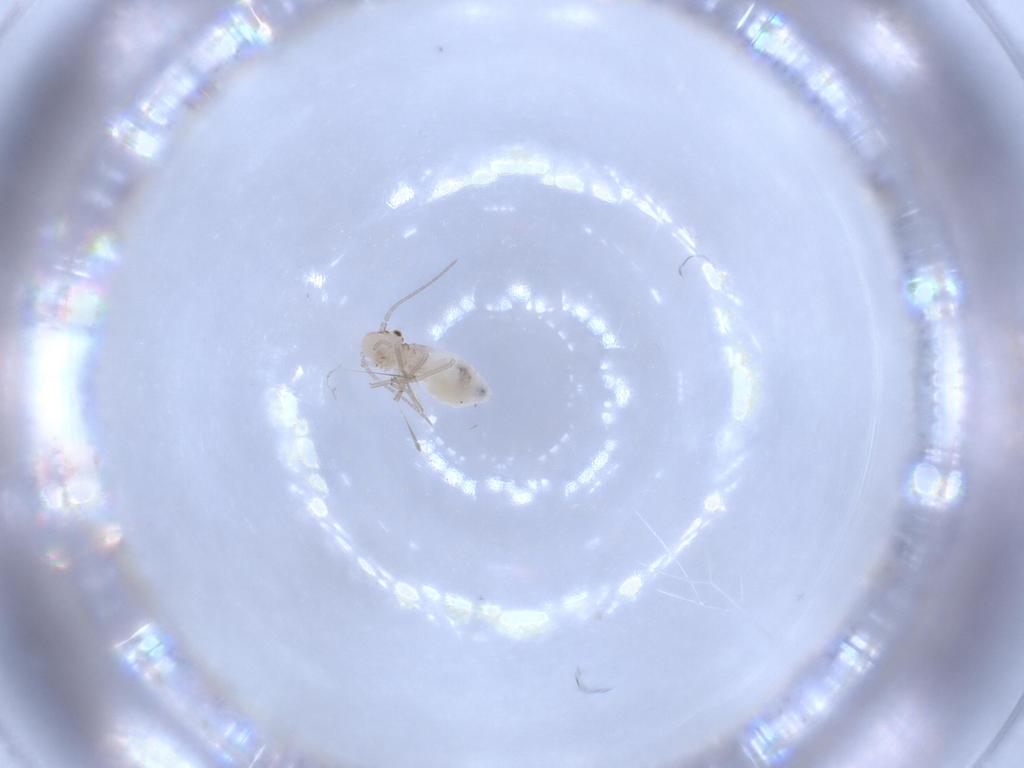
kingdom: Animalia
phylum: Arthropoda
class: Insecta
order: Psocodea
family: Caeciliusidae
